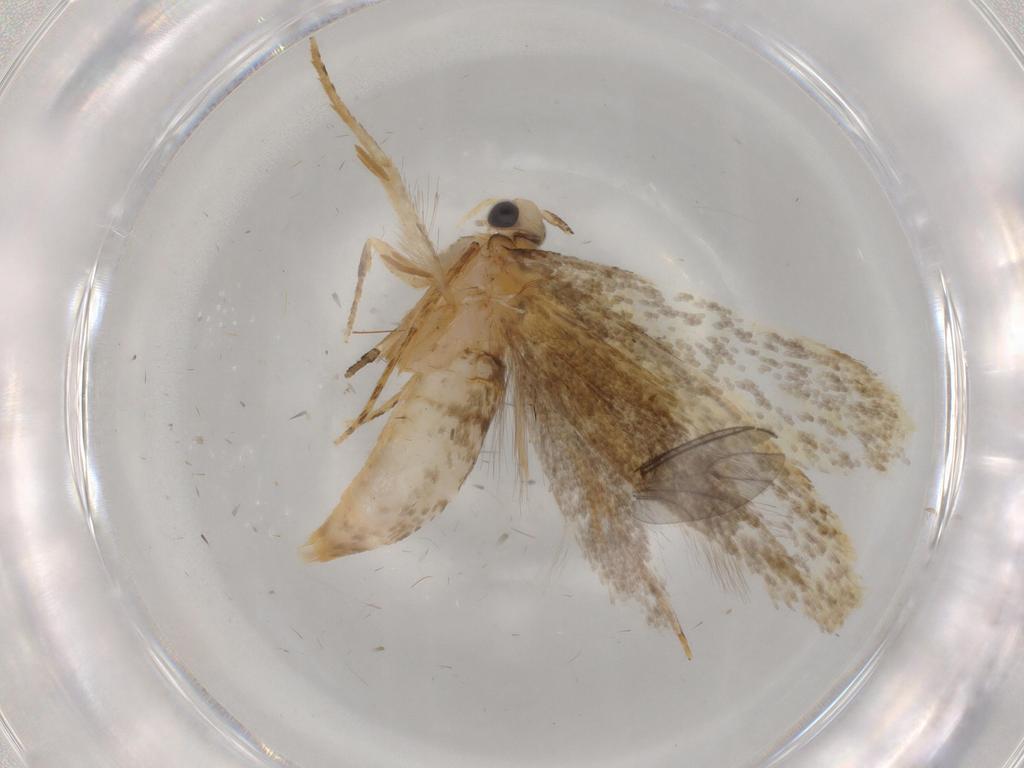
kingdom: Animalia
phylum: Arthropoda
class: Insecta
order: Lepidoptera
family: Tineidae
